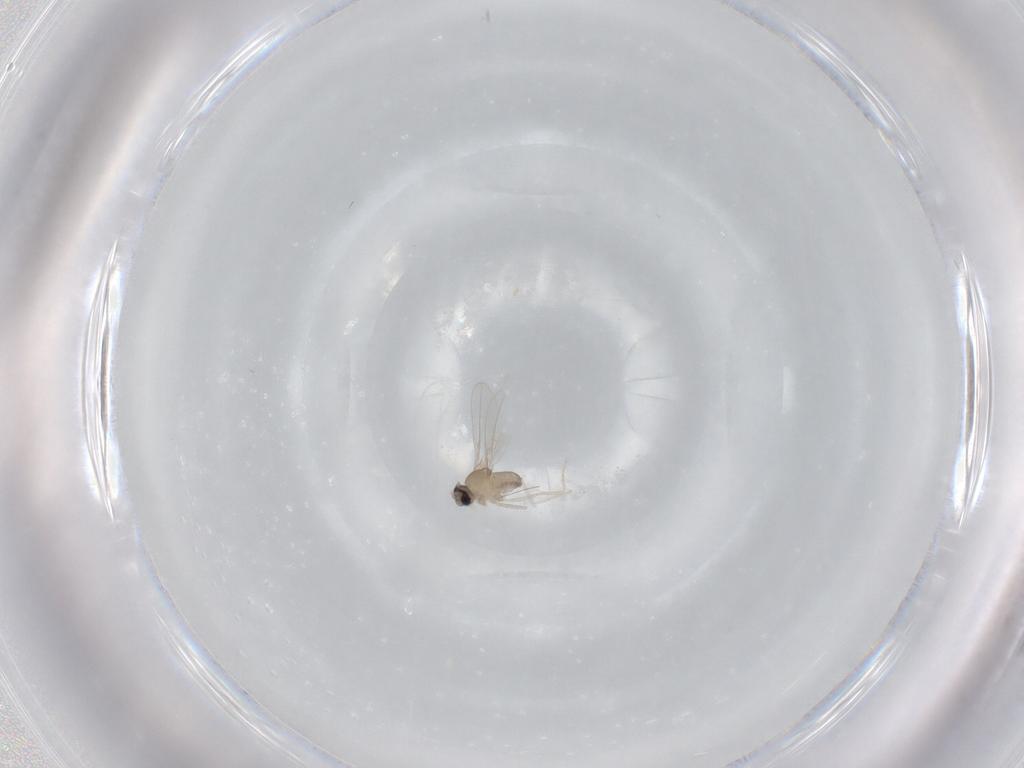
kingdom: Animalia
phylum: Arthropoda
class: Insecta
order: Diptera
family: Cecidomyiidae
